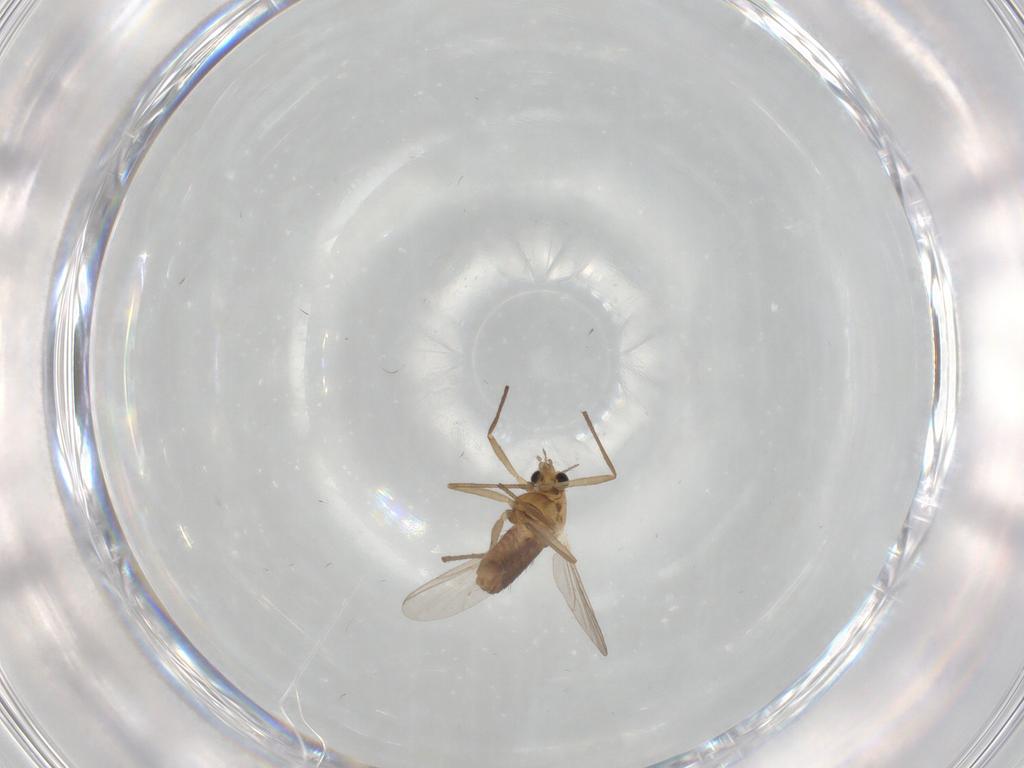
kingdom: Animalia
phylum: Arthropoda
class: Insecta
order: Diptera
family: Chironomidae
